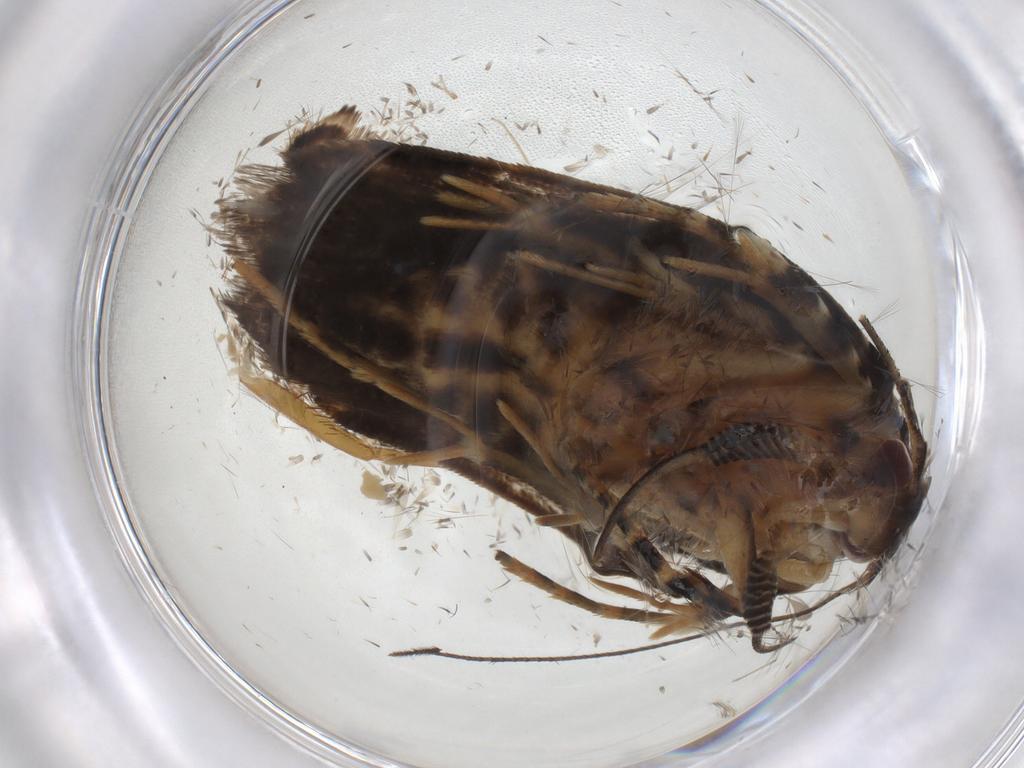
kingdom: Animalia
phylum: Arthropoda
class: Insecta
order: Lepidoptera
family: Gelechiidae
